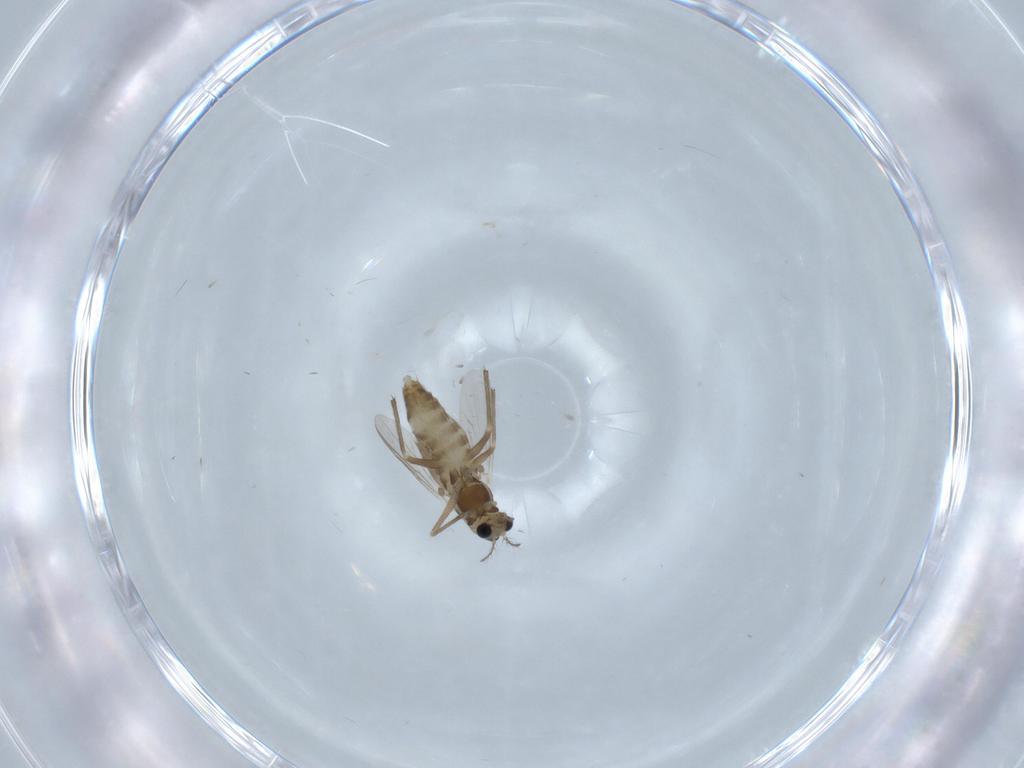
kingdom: Animalia
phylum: Arthropoda
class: Insecta
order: Diptera
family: Chironomidae
